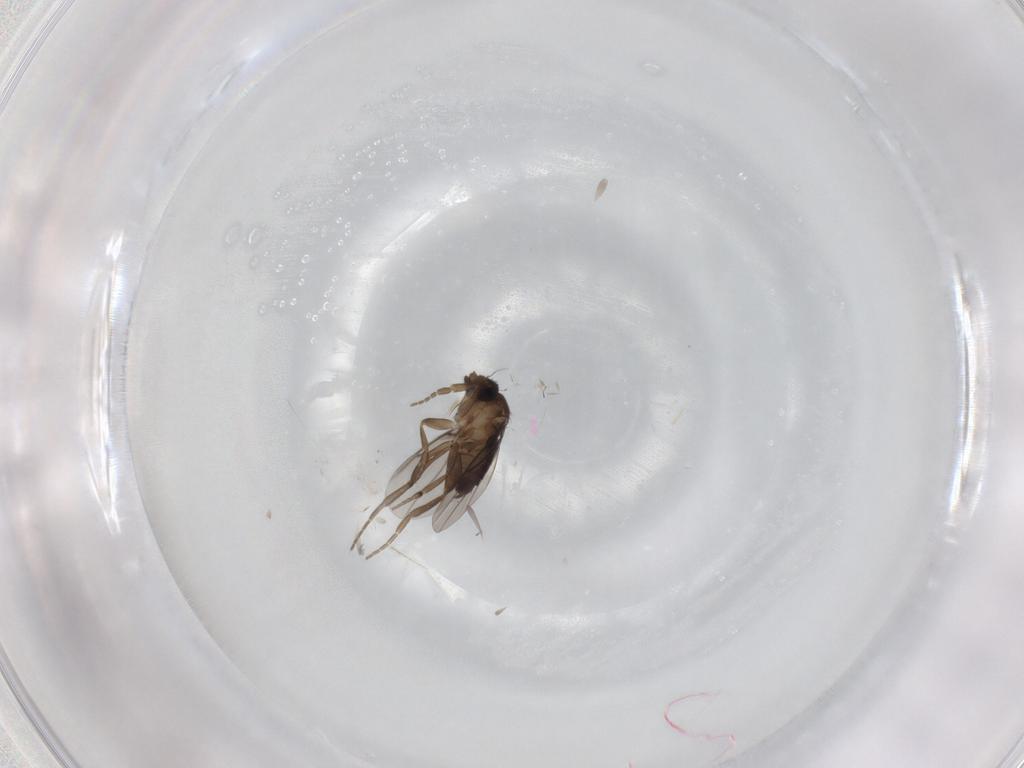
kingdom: Animalia
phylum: Arthropoda
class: Insecta
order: Diptera
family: Phoridae
